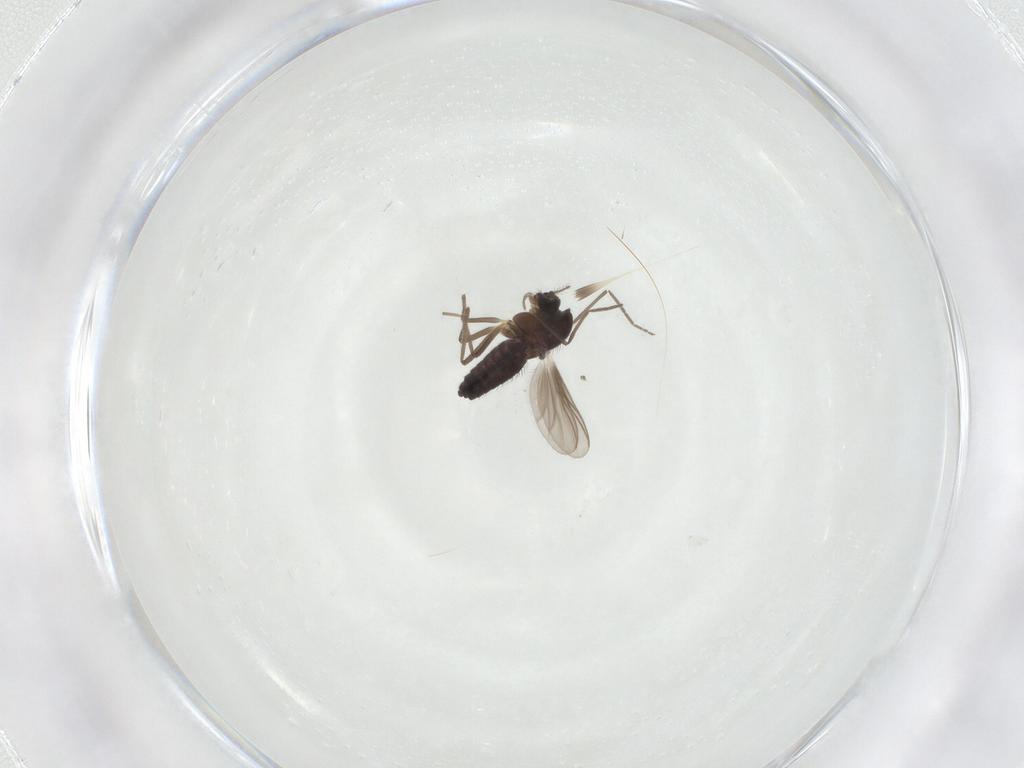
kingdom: Animalia
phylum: Arthropoda
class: Insecta
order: Diptera
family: Chironomidae
